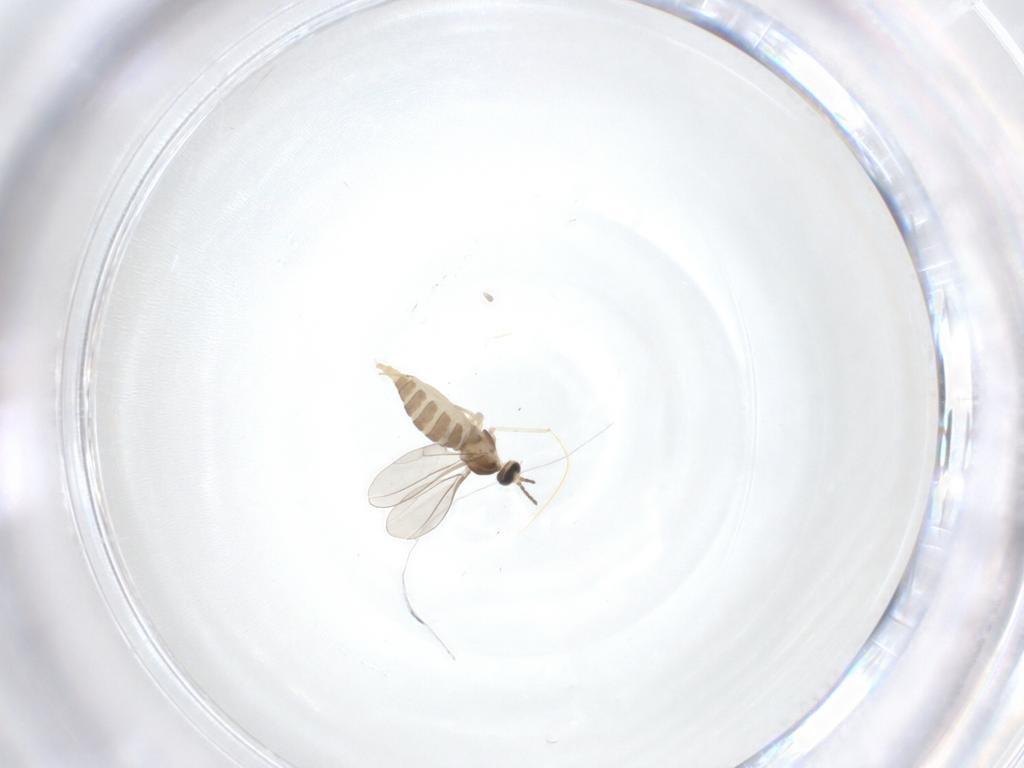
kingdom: Animalia
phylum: Arthropoda
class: Insecta
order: Diptera
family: Cecidomyiidae
